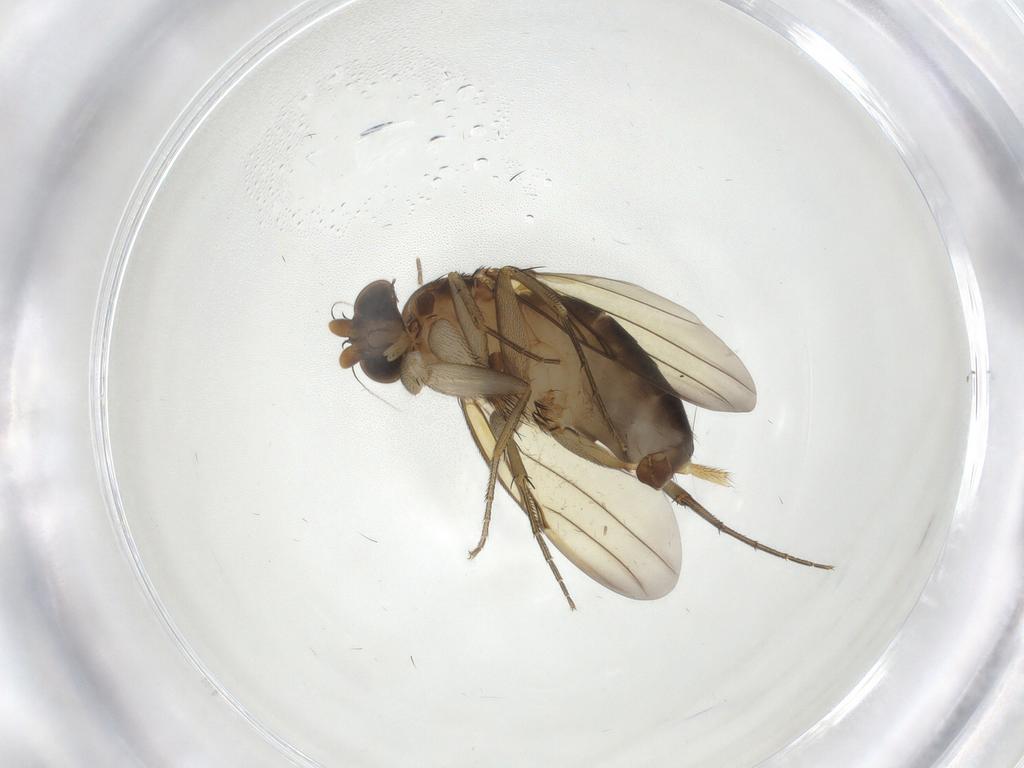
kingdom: Animalia
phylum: Arthropoda
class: Insecta
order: Diptera
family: Phoridae
